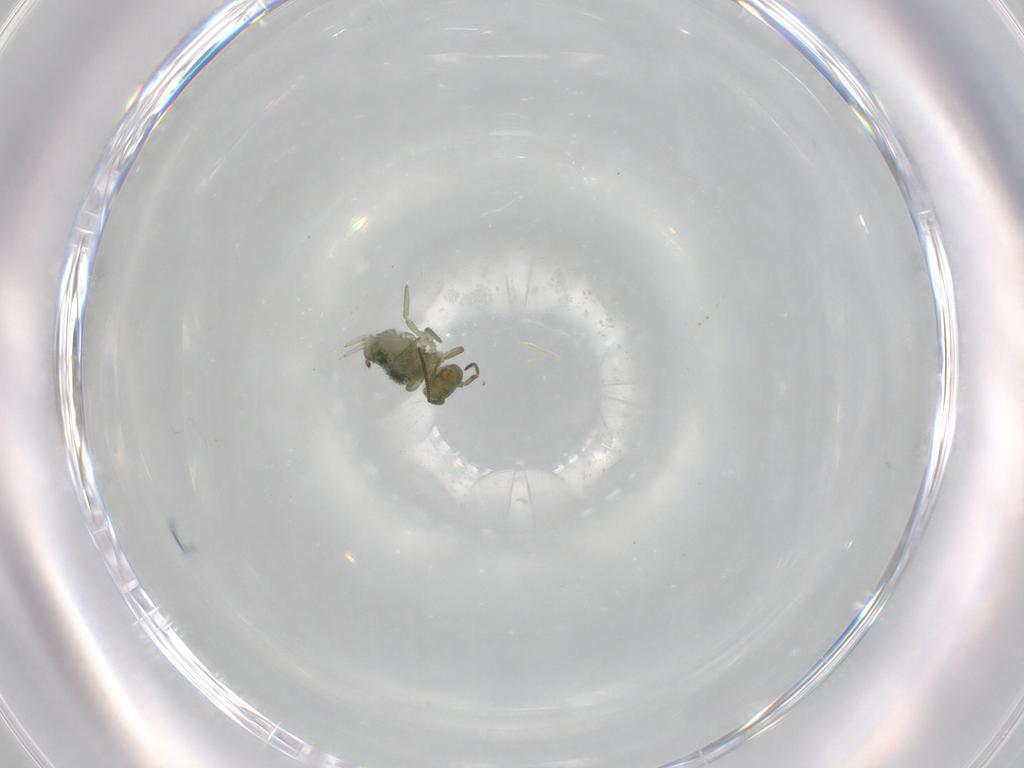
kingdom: Animalia
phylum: Arthropoda
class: Collembola
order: Symphypleona
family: Sminthuridae
